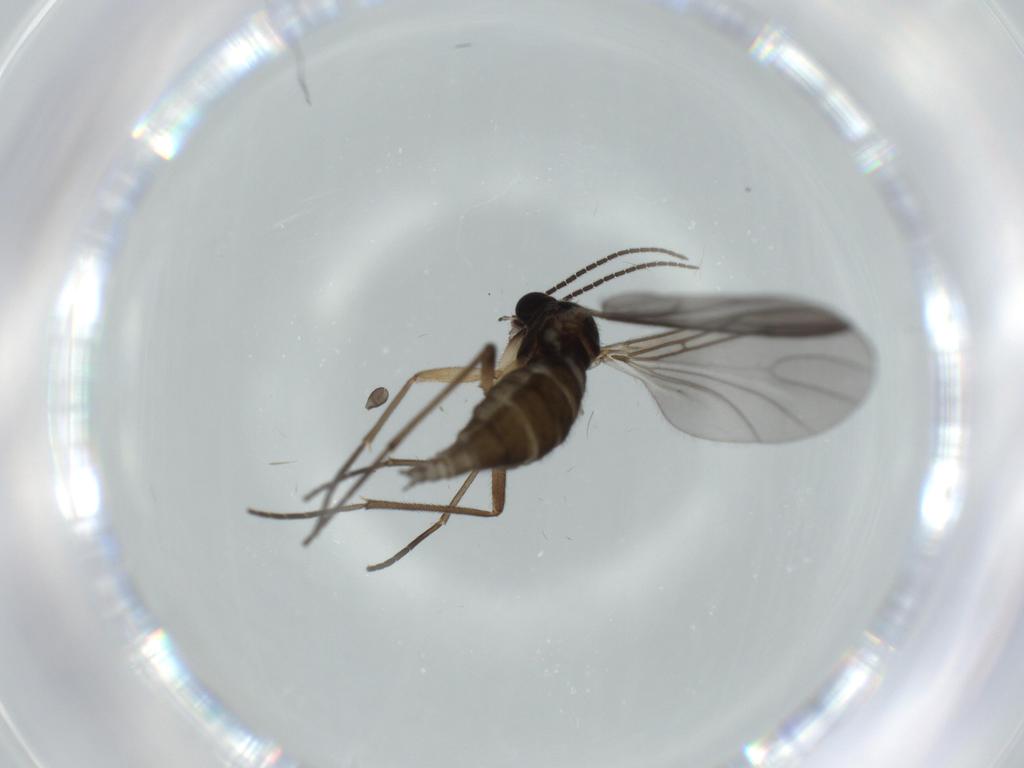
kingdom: Animalia
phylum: Arthropoda
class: Insecta
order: Diptera
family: Sciaridae
